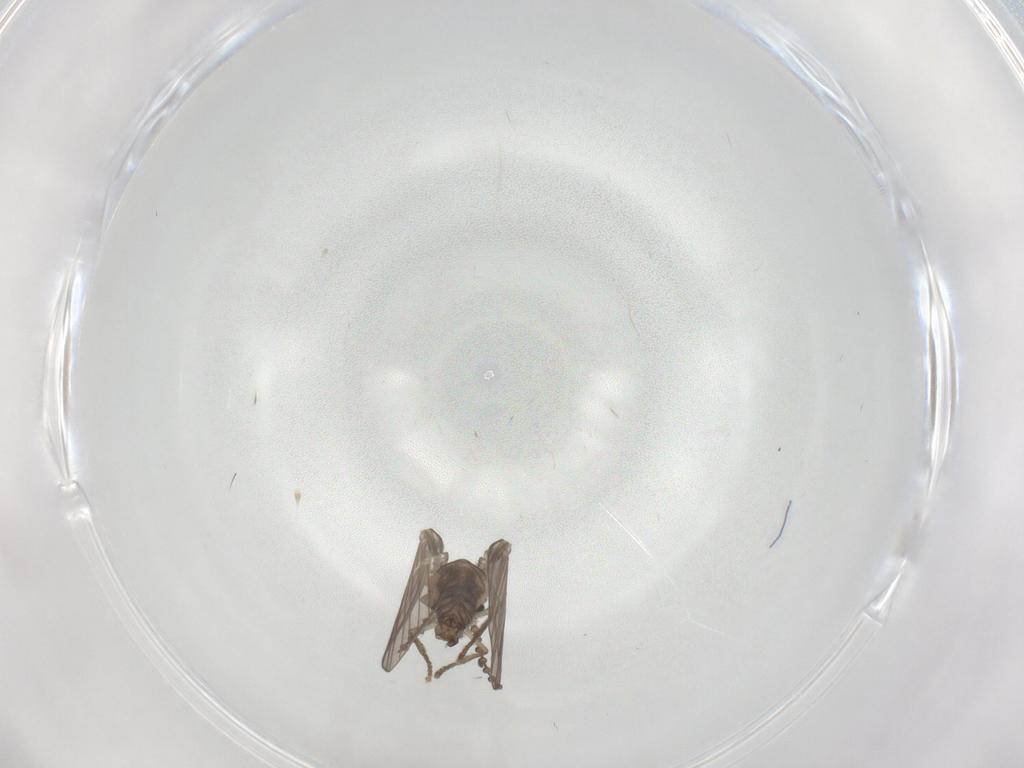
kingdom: Animalia
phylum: Arthropoda
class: Insecta
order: Diptera
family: Psychodidae
